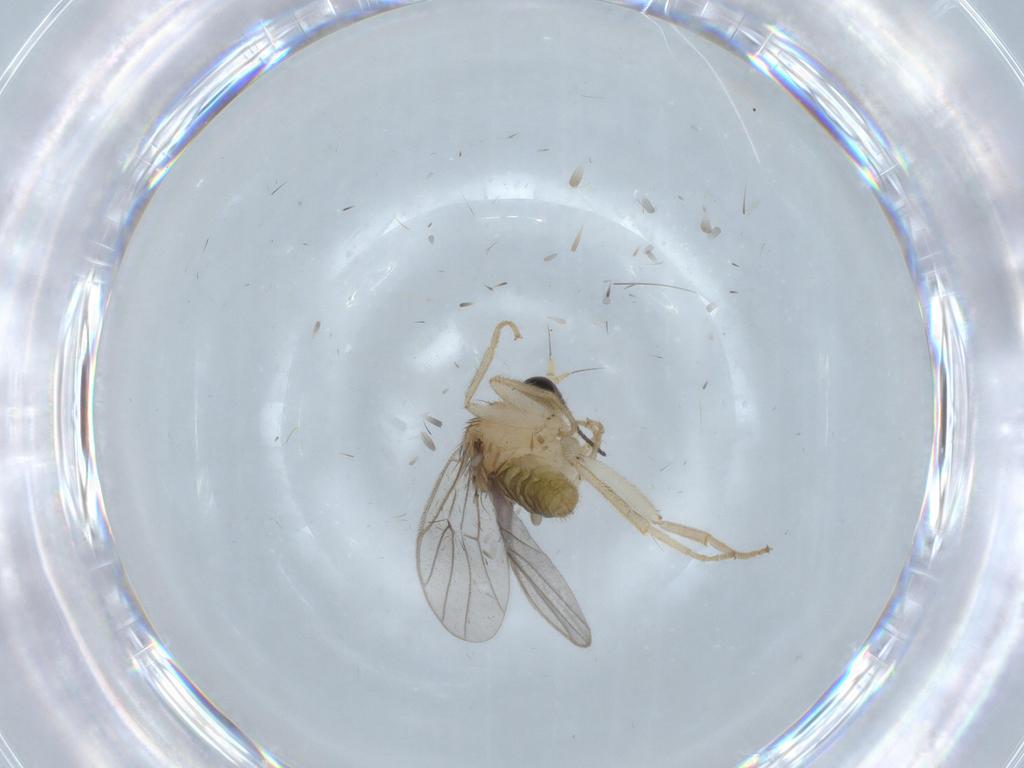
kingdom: Animalia
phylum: Arthropoda
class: Insecta
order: Diptera
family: Hybotidae
